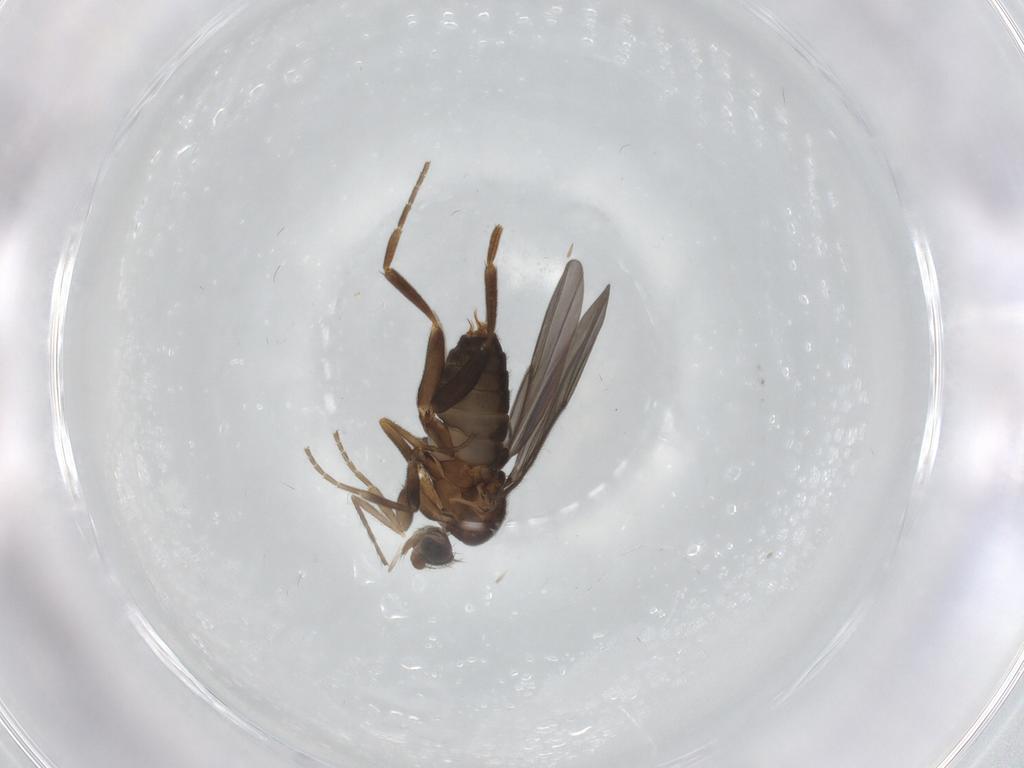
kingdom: Animalia
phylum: Arthropoda
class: Insecta
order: Diptera
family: Phoridae
